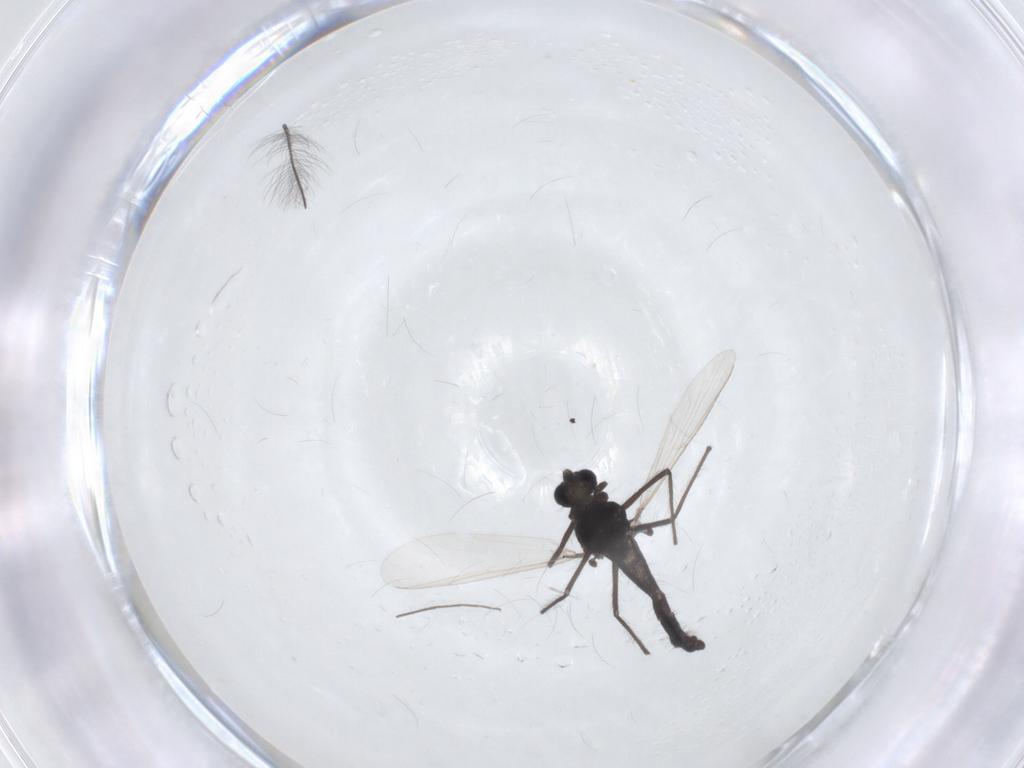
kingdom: Animalia
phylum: Arthropoda
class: Insecta
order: Diptera
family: Chironomidae
